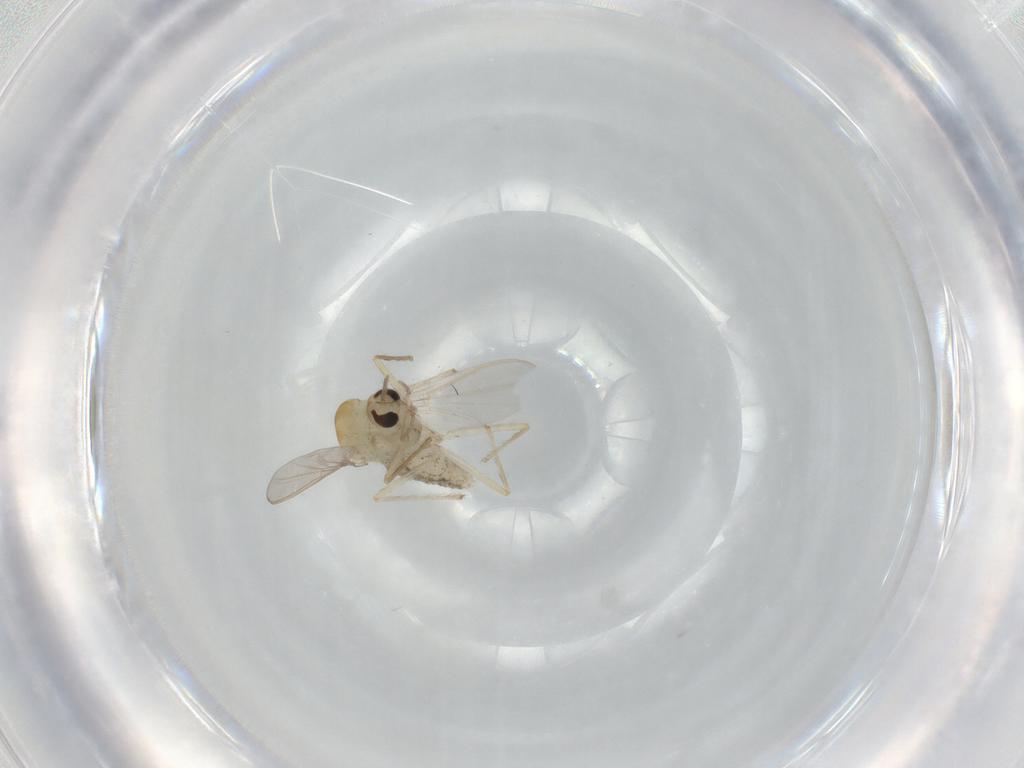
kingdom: Animalia
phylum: Arthropoda
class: Insecta
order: Diptera
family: Chironomidae
